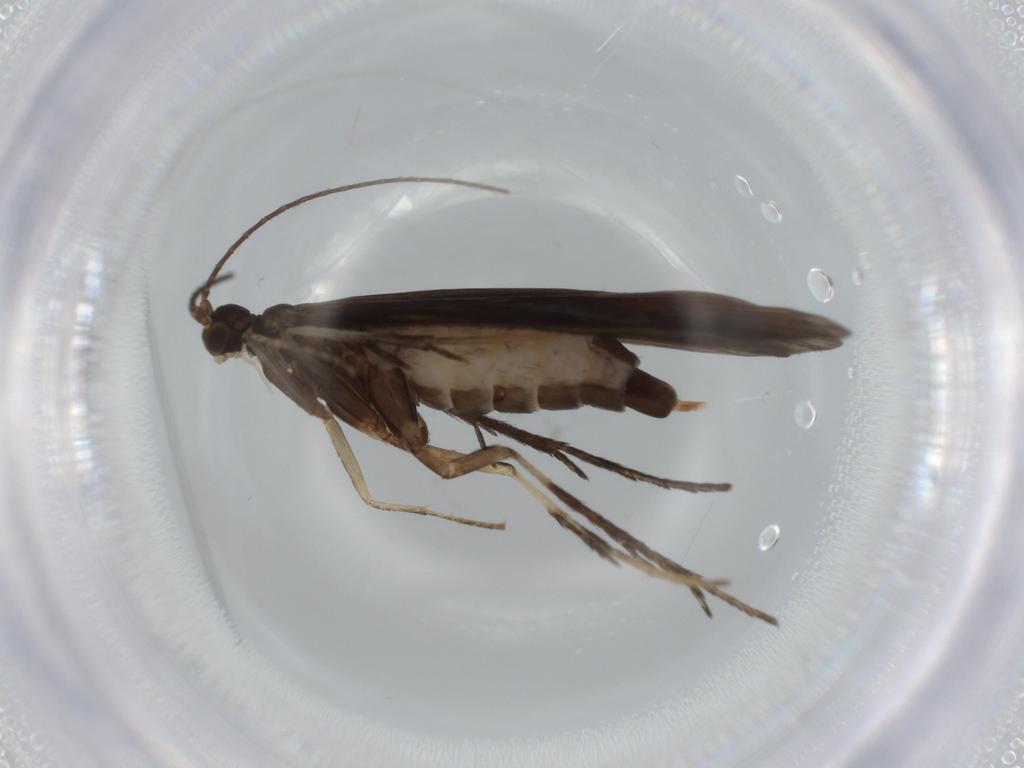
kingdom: Animalia
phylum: Arthropoda
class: Insecta
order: Trichoptera
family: Xiphocentronidae
